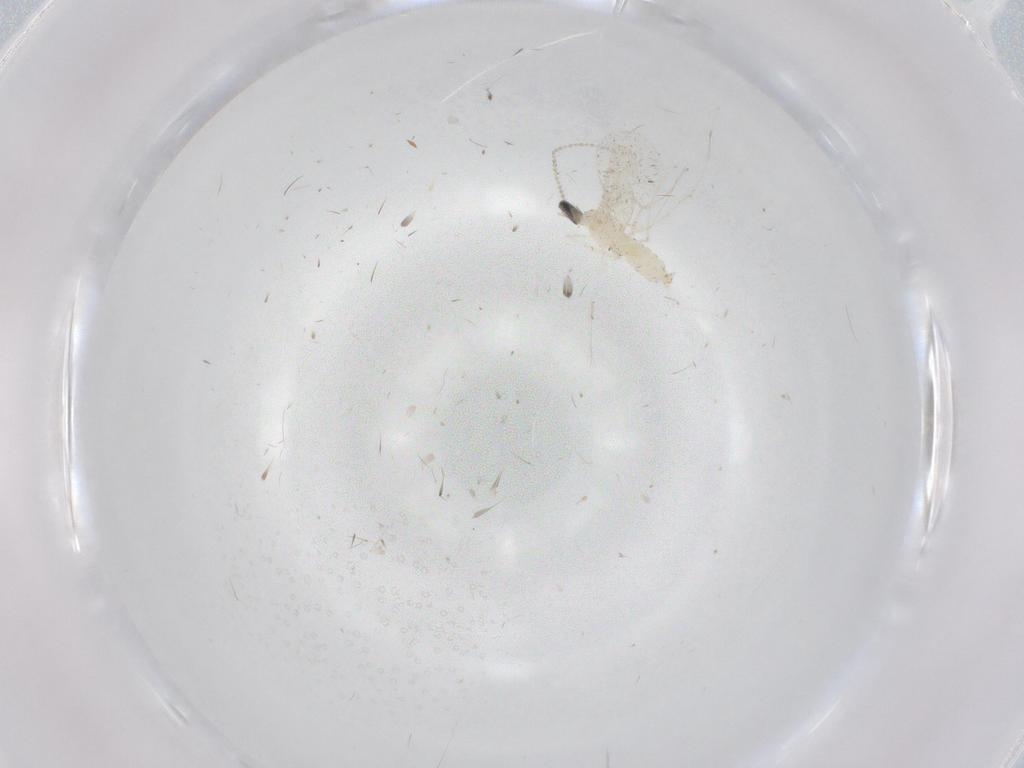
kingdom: Animalia
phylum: Arthropoda
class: Insecta
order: Diptera
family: Cecidomyiidae
